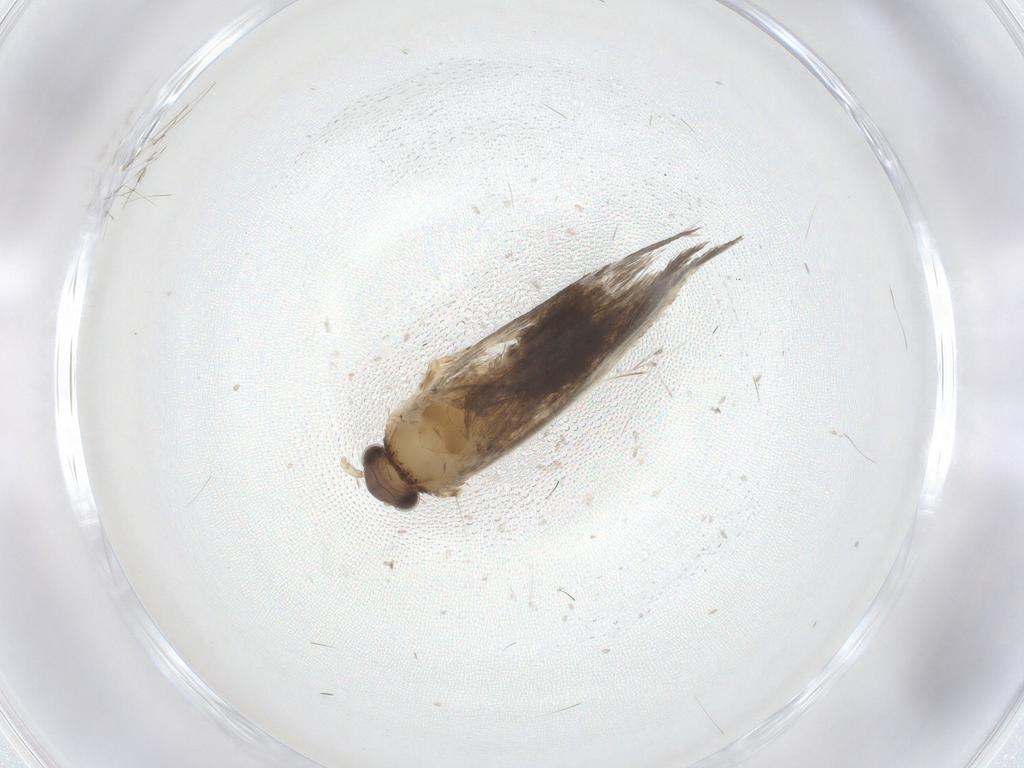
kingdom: Animalia
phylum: Arthropoda
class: Insecta
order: Lepidoptera
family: Dryadaulidae
